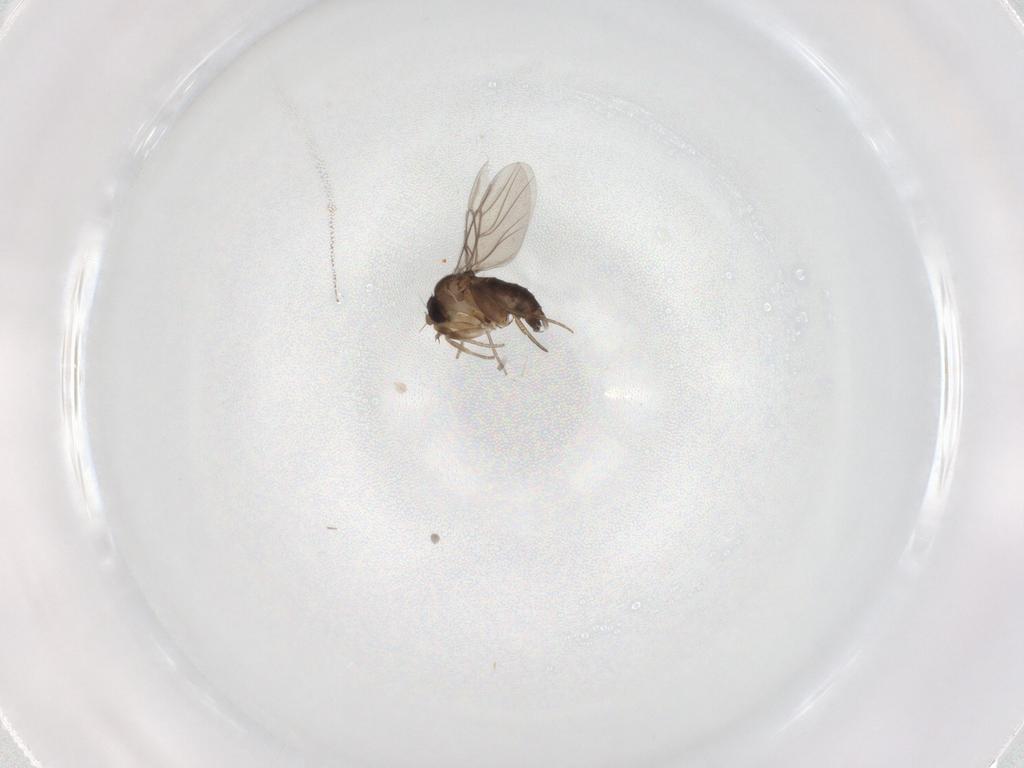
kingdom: Animalia
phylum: Arthropoda
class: Insecta
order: Diptera
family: Phoridae
